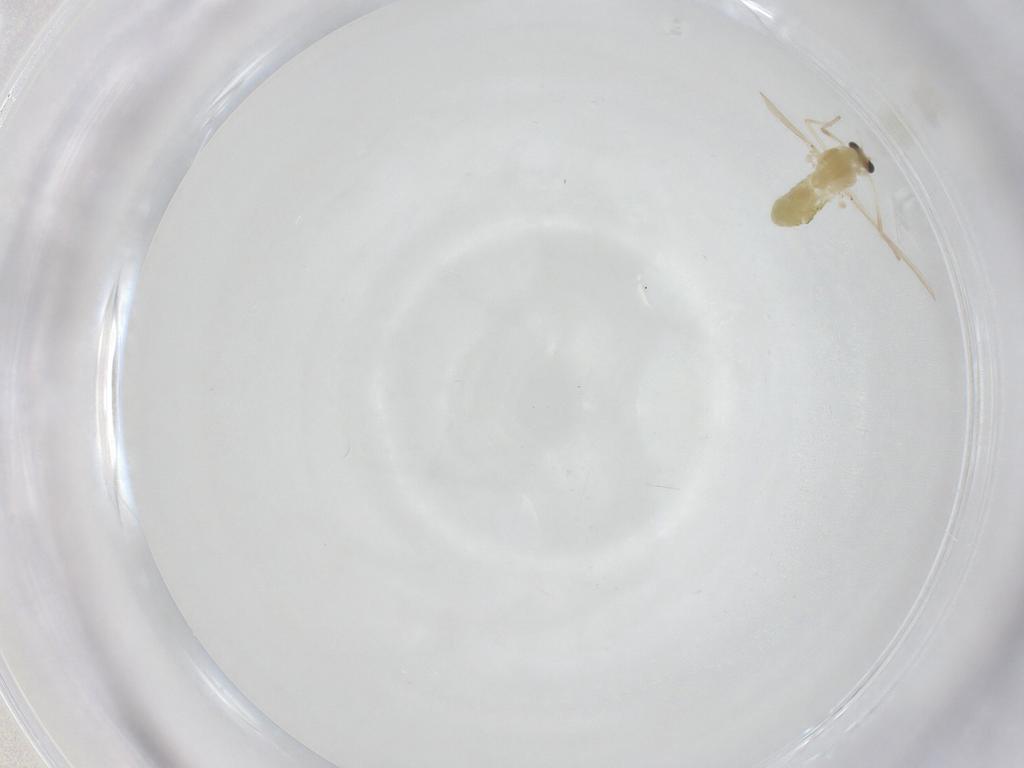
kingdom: Animalia
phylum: Arthropoda
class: Insecta
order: Diptera
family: Chironomidae
